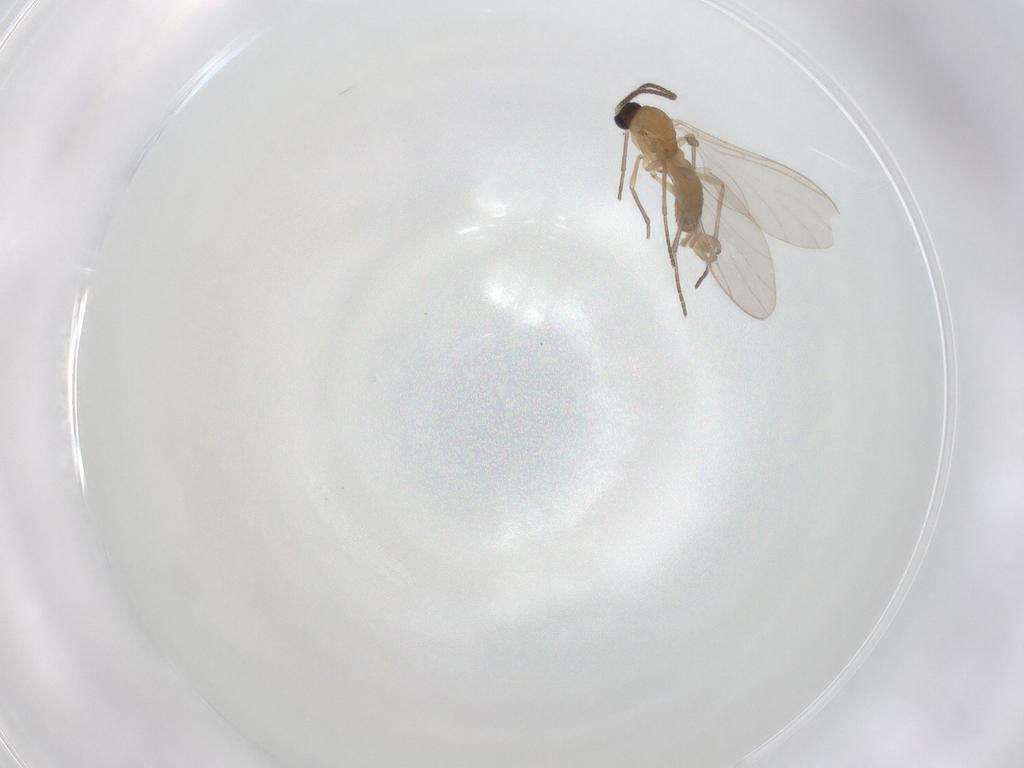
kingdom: Animalia
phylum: Arthropoda
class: Insecta
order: Diptera
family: Sciaridae
